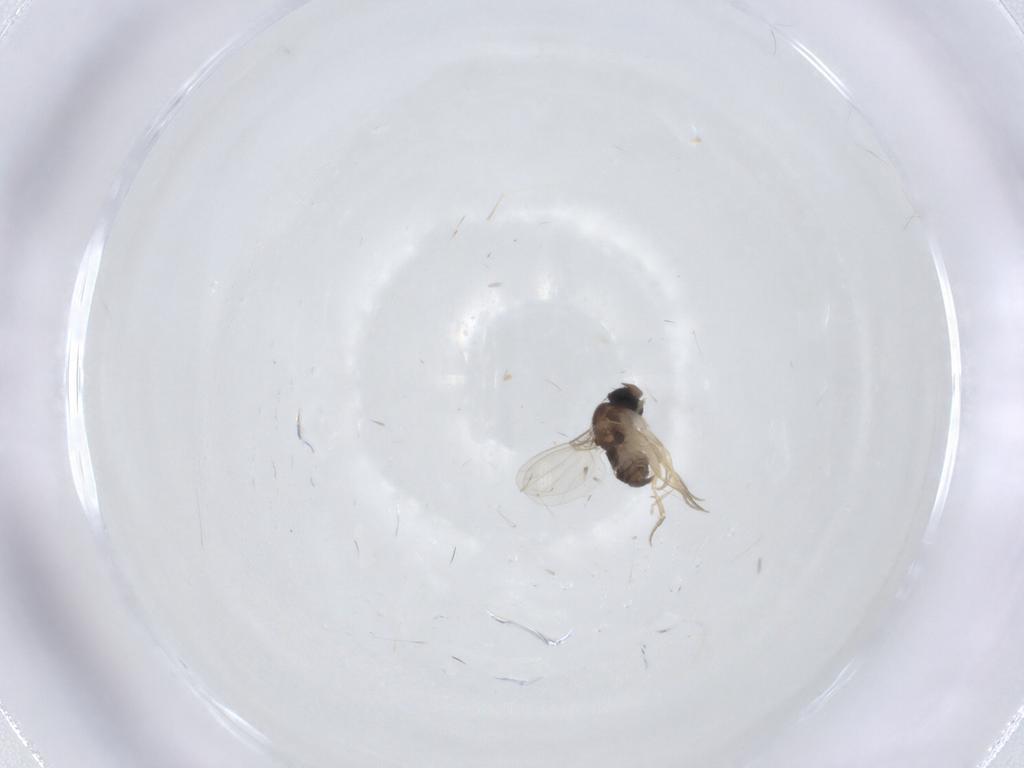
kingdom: Animalia
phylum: Arthropoda
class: Insecta
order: Diptera
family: Phoridae
